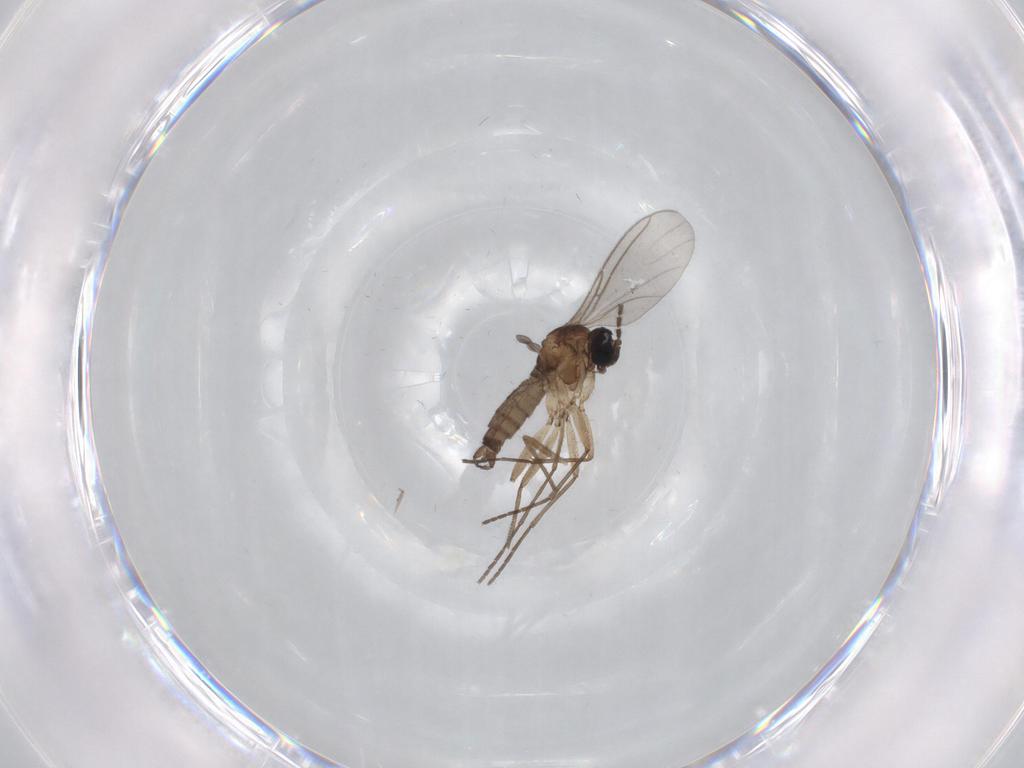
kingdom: Animalia
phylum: Arthropoda
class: Insecta
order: Diptera
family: Sciaridae
